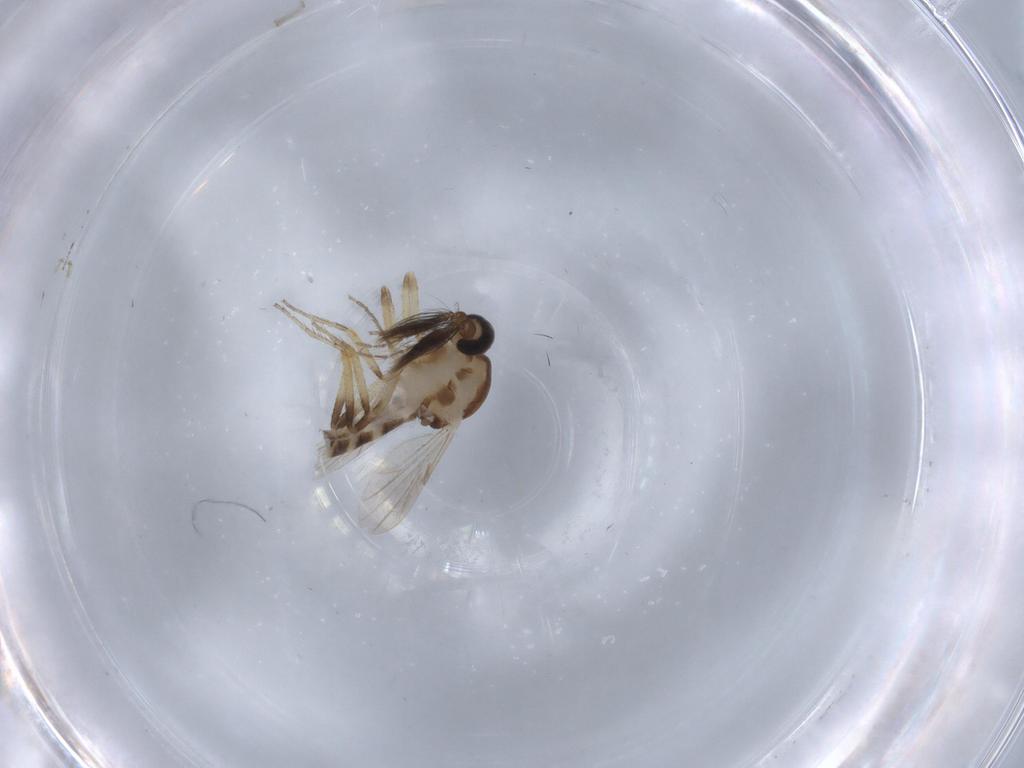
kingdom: Animalia
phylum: Arthropoda
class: Insecta
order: Diptera
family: Ceratopogonidae
